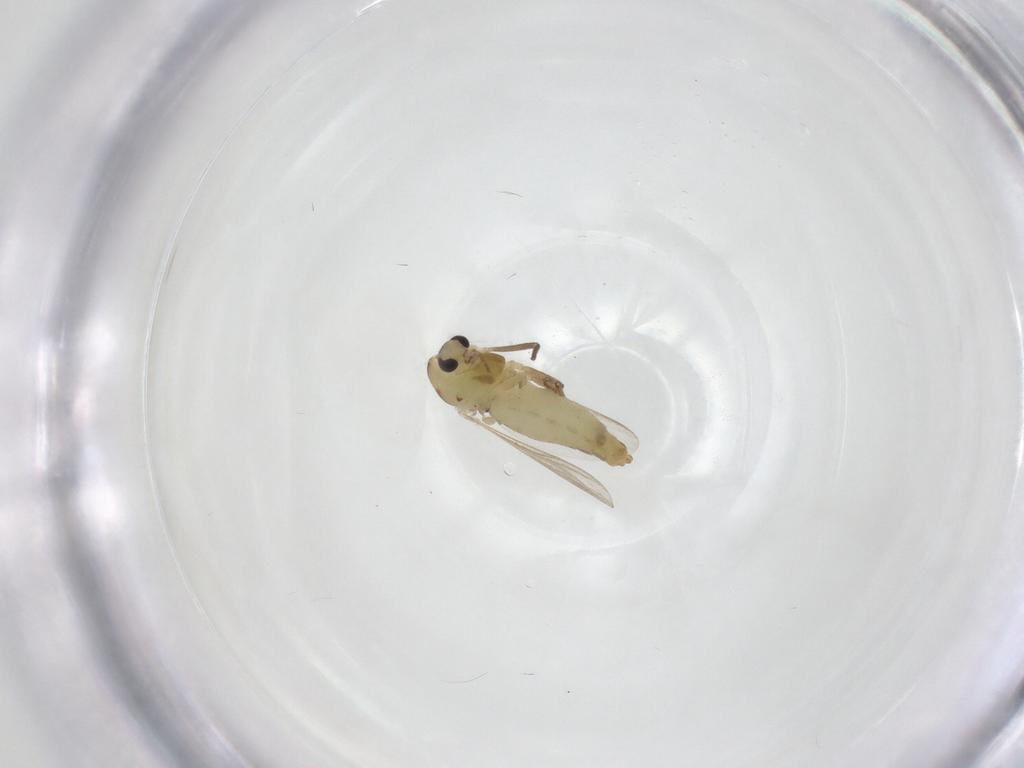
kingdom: Animalia
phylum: Arthropoda
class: Insecta
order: Diptera
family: Chironomidae
